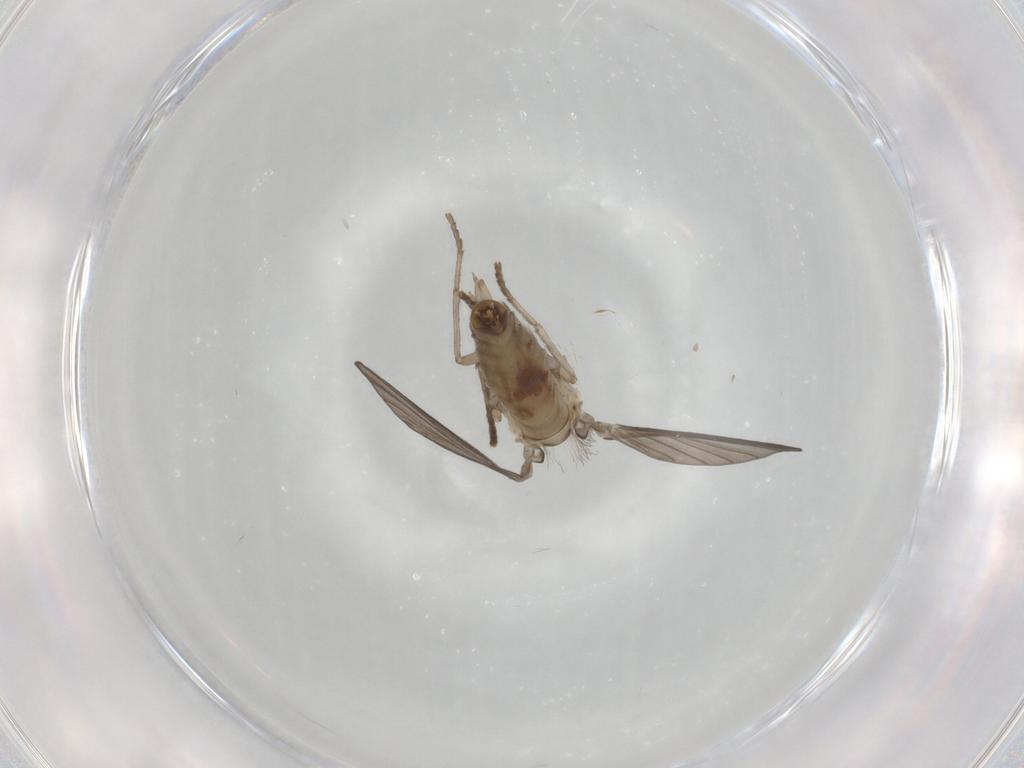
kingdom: Animalia
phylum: Arthropoda
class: Insecta
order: Diptera
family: Psychodidae
